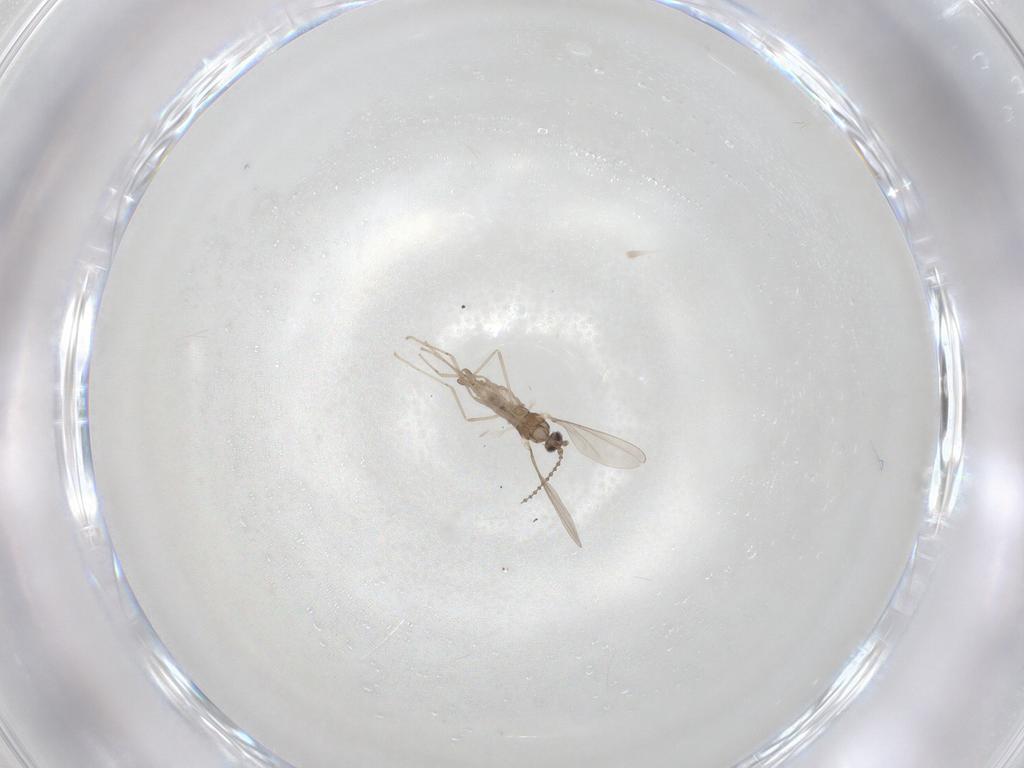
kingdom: Animalia
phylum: Arthropoda
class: Insecta
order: Diptera
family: Cecidomyiidae
